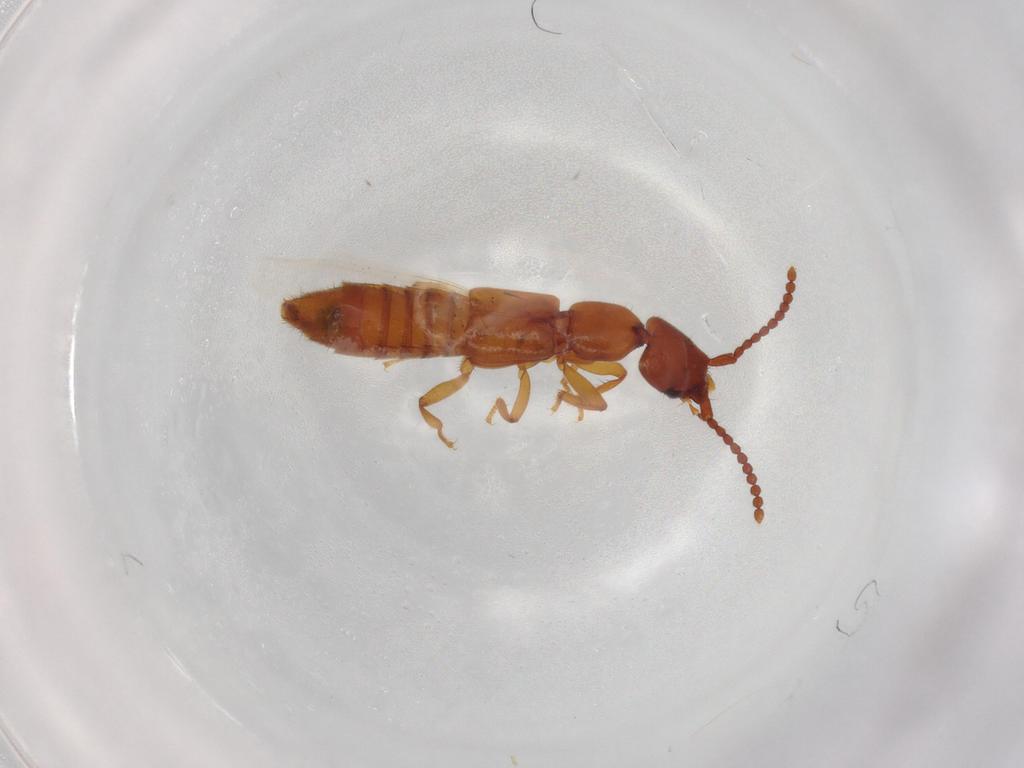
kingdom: Animalia
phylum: Arthropoda
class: Insecta
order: Coleoptera
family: Staphylinidae
